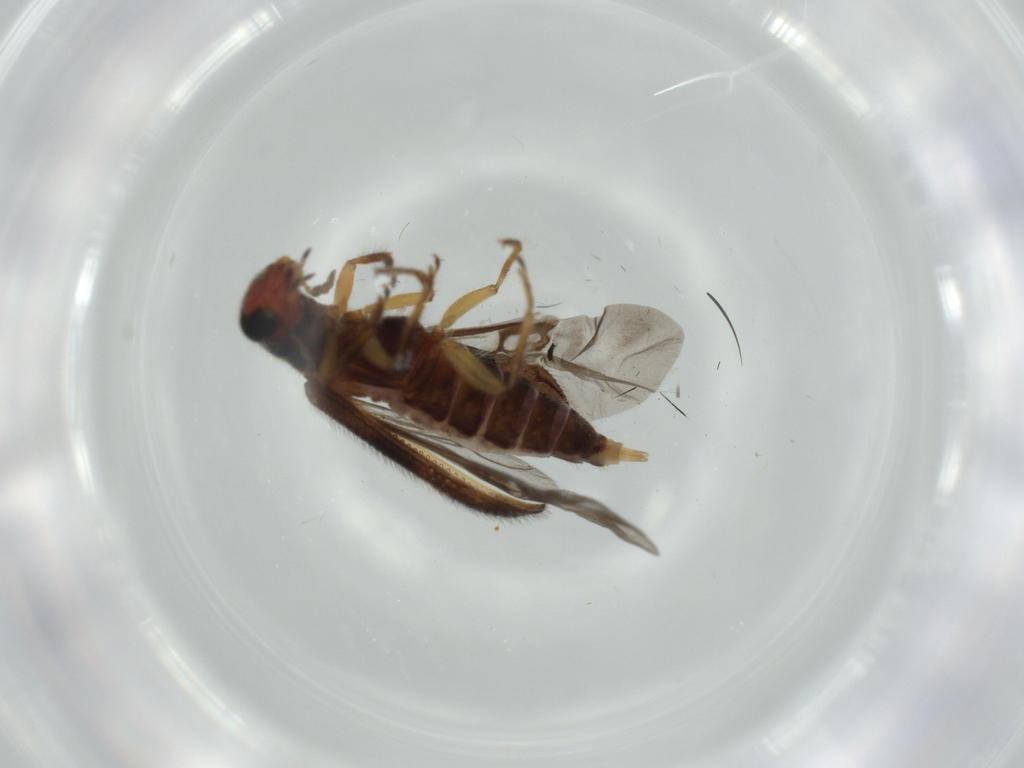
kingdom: Animalia
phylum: Arthropoda
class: Insecta
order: Coleoptera
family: Cleridae
